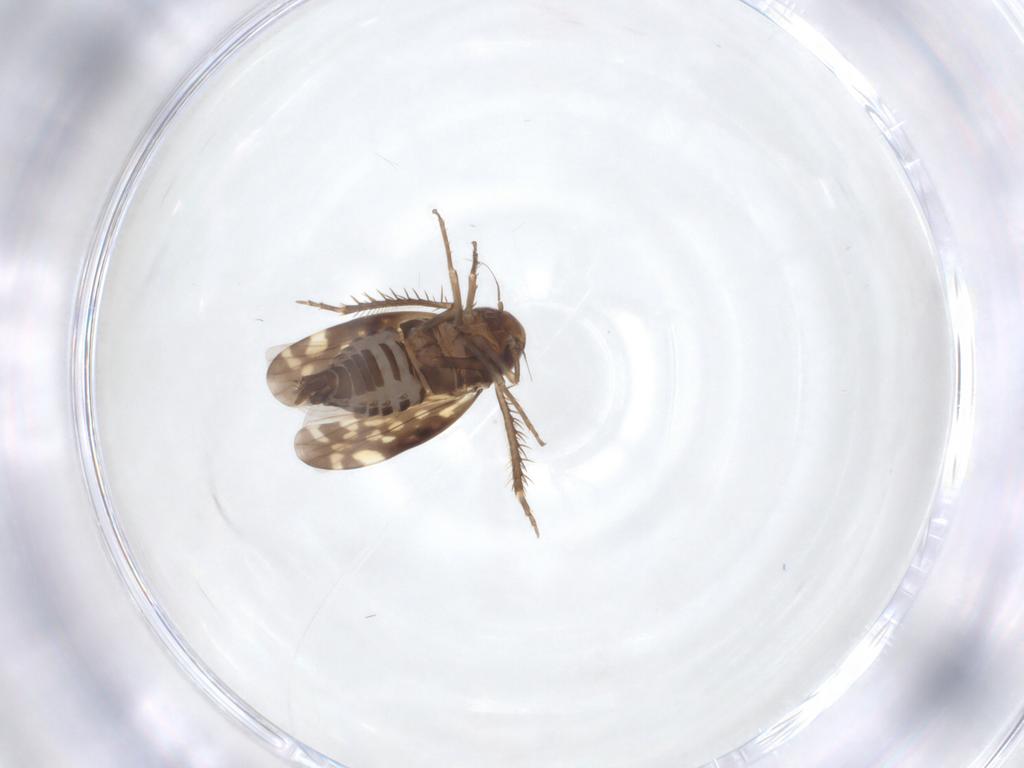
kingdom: Animalia
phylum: Arthropoda
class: Insecta
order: Hemiptera
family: Cicadellidae
